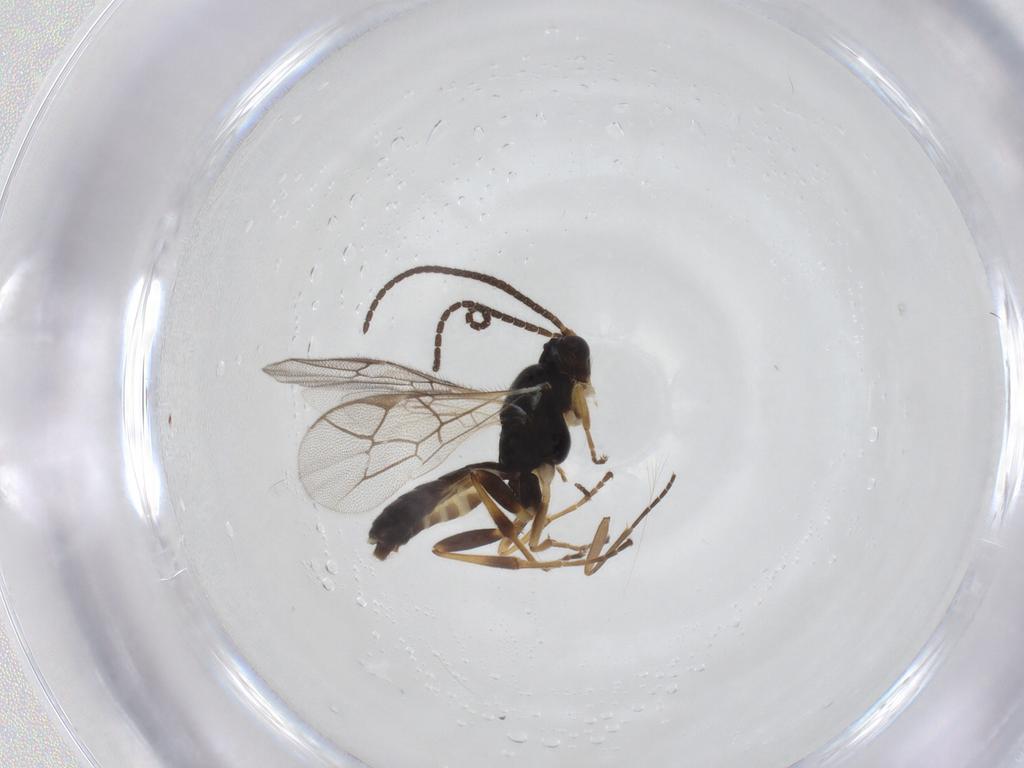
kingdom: Animalia
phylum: Arthropoda
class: Insecta
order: Hymenoptera
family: Ichneumonidae
